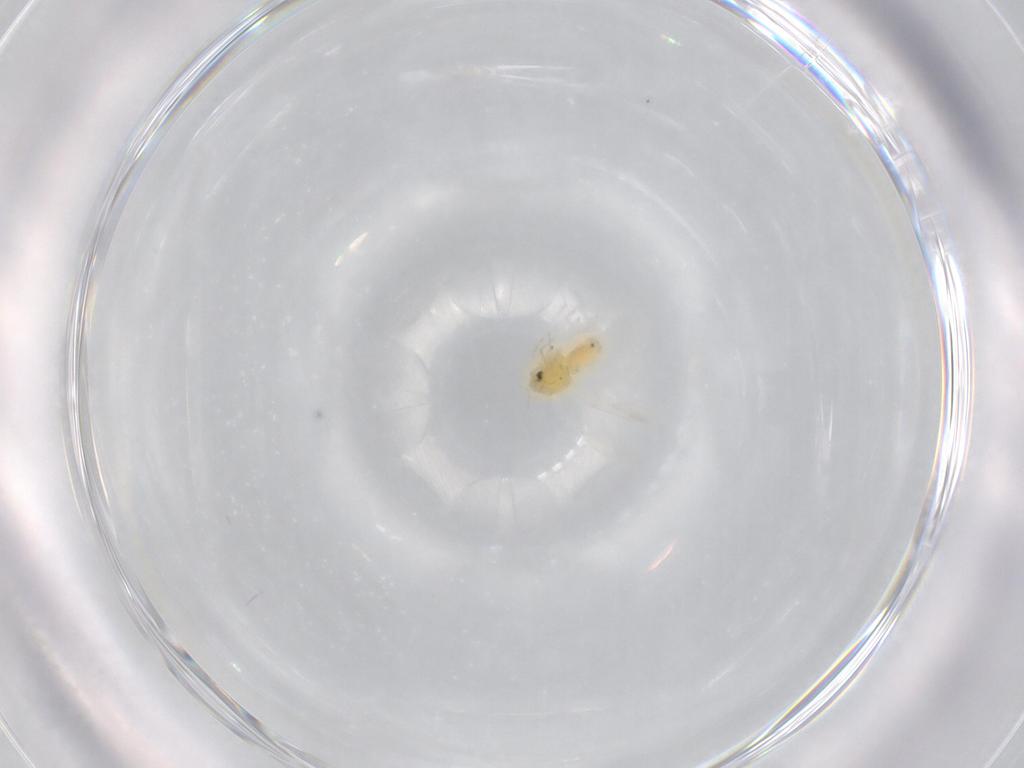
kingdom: Animalia
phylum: Arthropoda
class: Insecta
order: Hemiptera
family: Aleyrodidae
